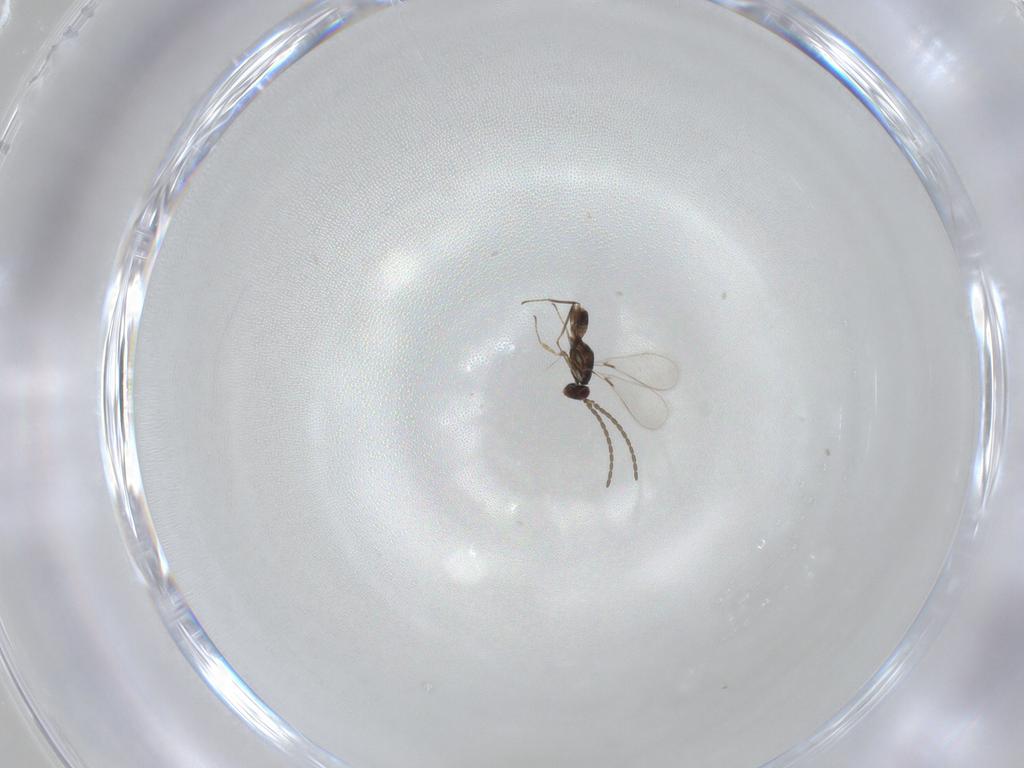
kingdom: Animalia
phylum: Arthropoda
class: Insecta
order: Hymenoptera
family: Mymaridae
